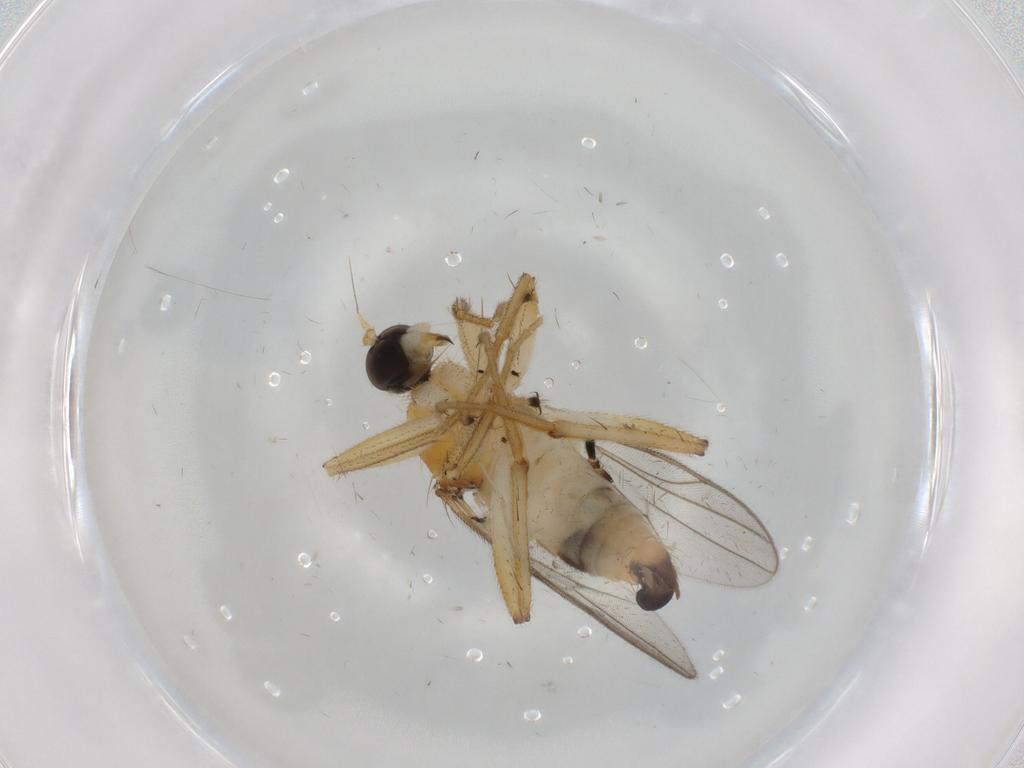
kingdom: Animalia
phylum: Arthropoda
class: Insecta
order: Diptera
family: Hybotidae
